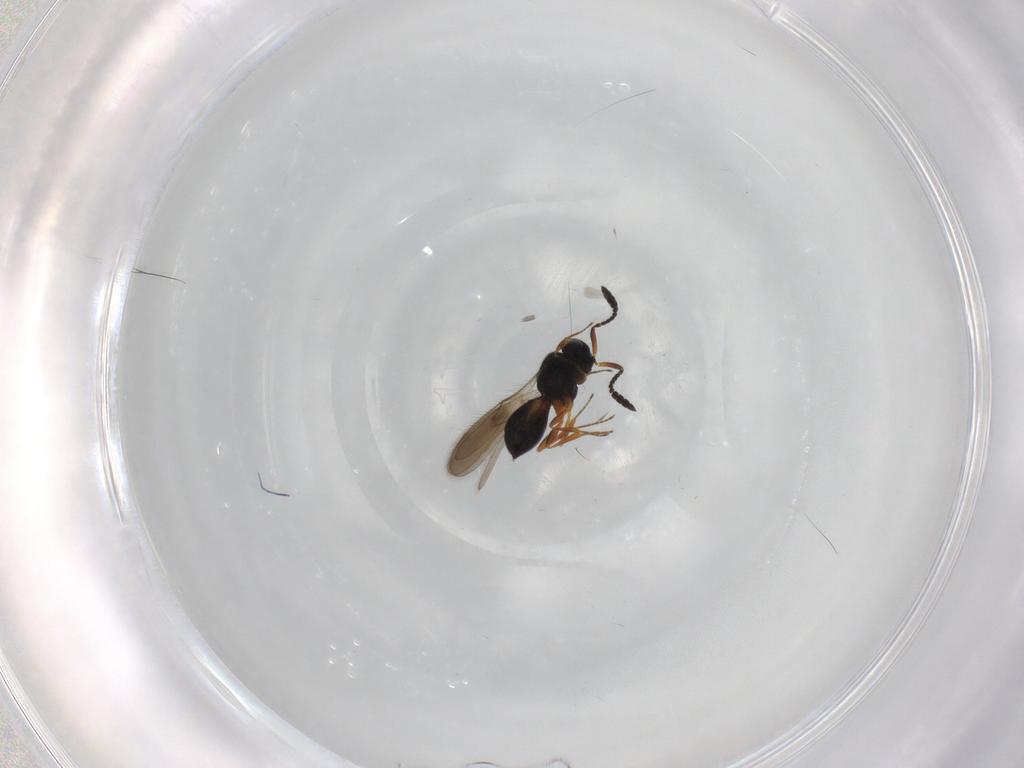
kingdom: Animalia
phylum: Arthropoda
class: Insecta
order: Hymenoptera
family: Scelionidae
